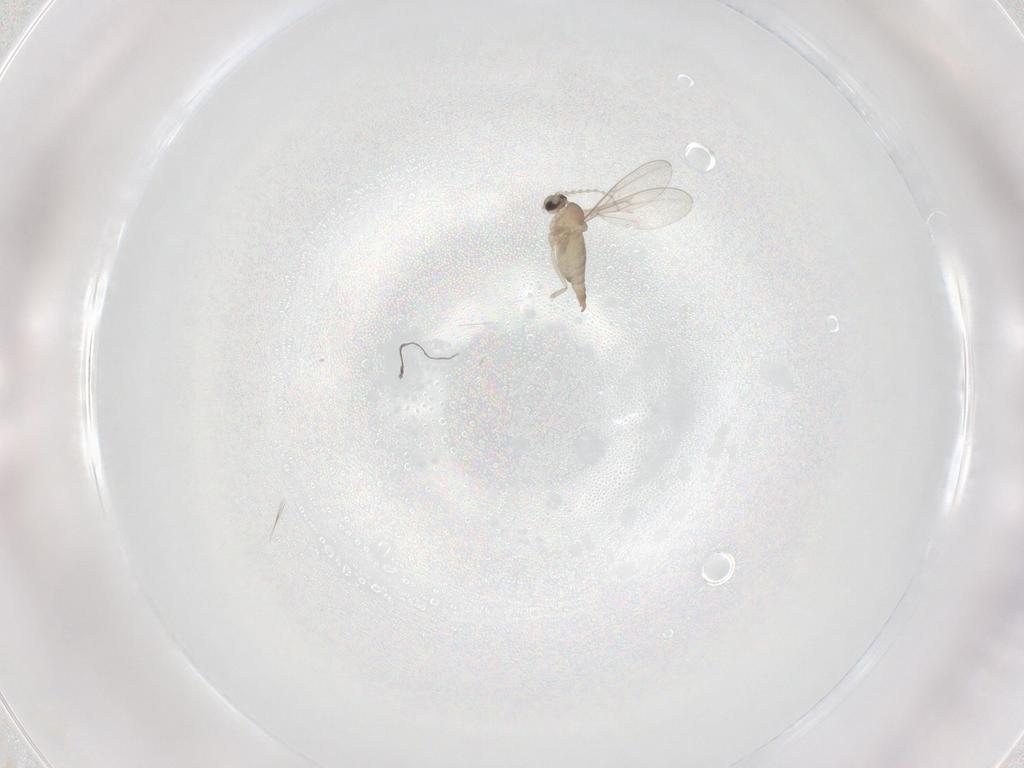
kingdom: Animalia
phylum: Arthropoda
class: Insecta
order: Diptera
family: Cecidomyiidae
